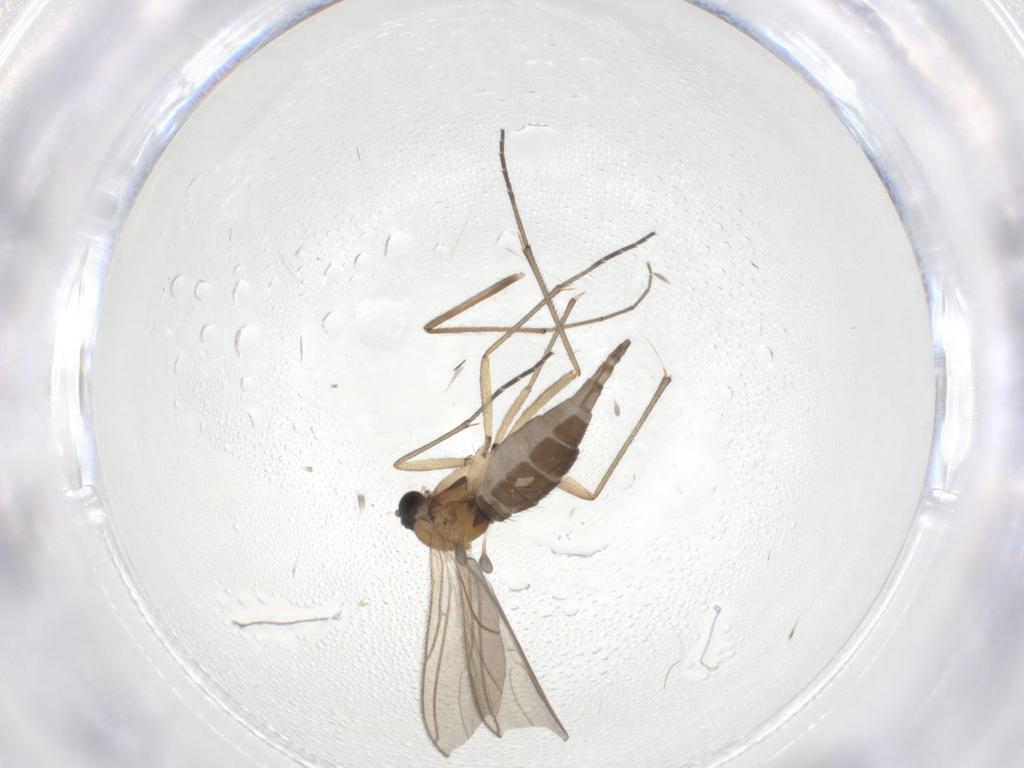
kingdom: Animalia
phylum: Arthropoda
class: Insecta
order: Diptera
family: Sciaridae
